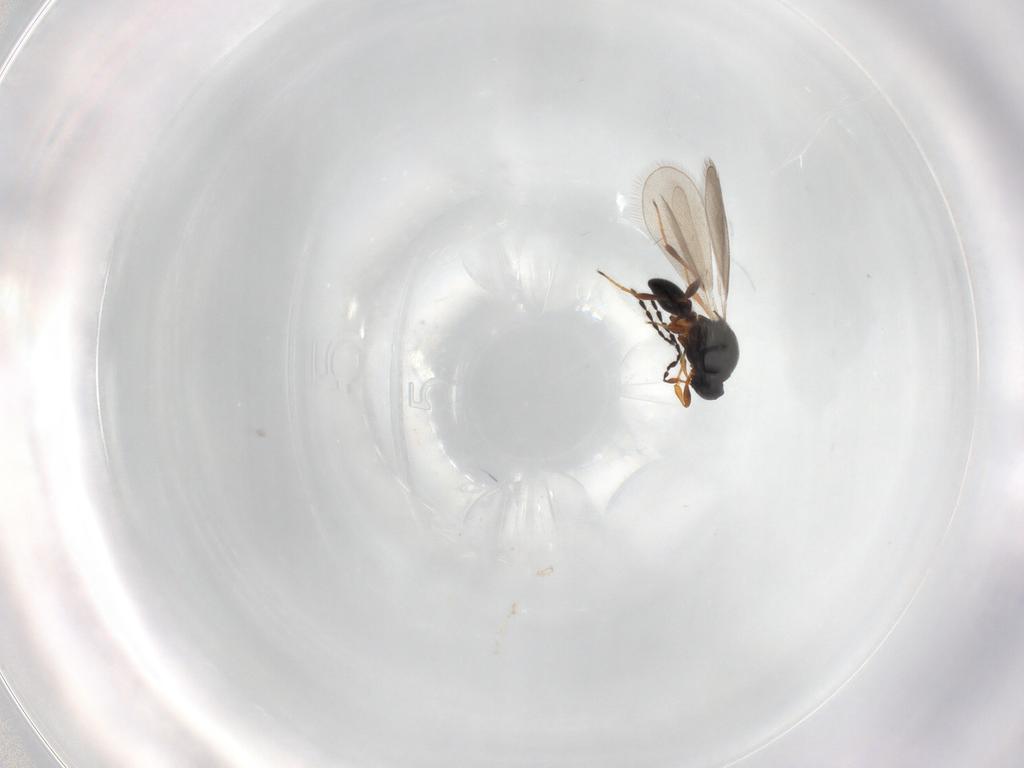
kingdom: Animalia
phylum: Arthropoda
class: Insecta
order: Hymenoptera
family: Platygastridae
